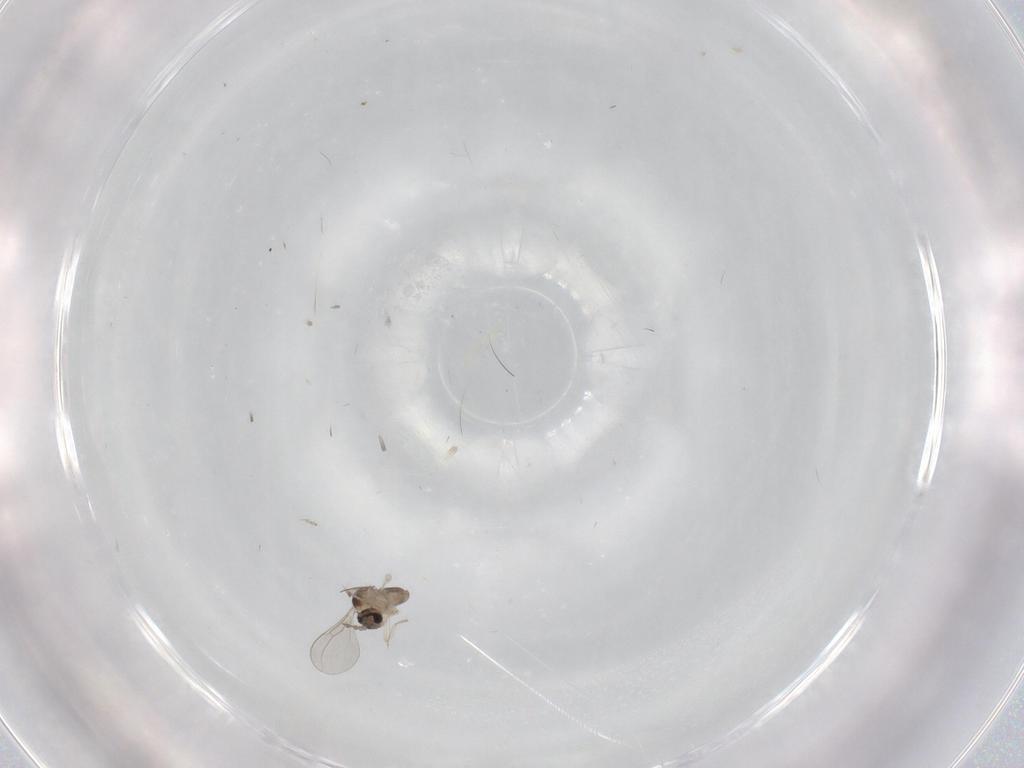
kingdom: Animalia
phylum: Arthropoda
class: Insecta
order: Diptera
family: Cecidomyiidae
